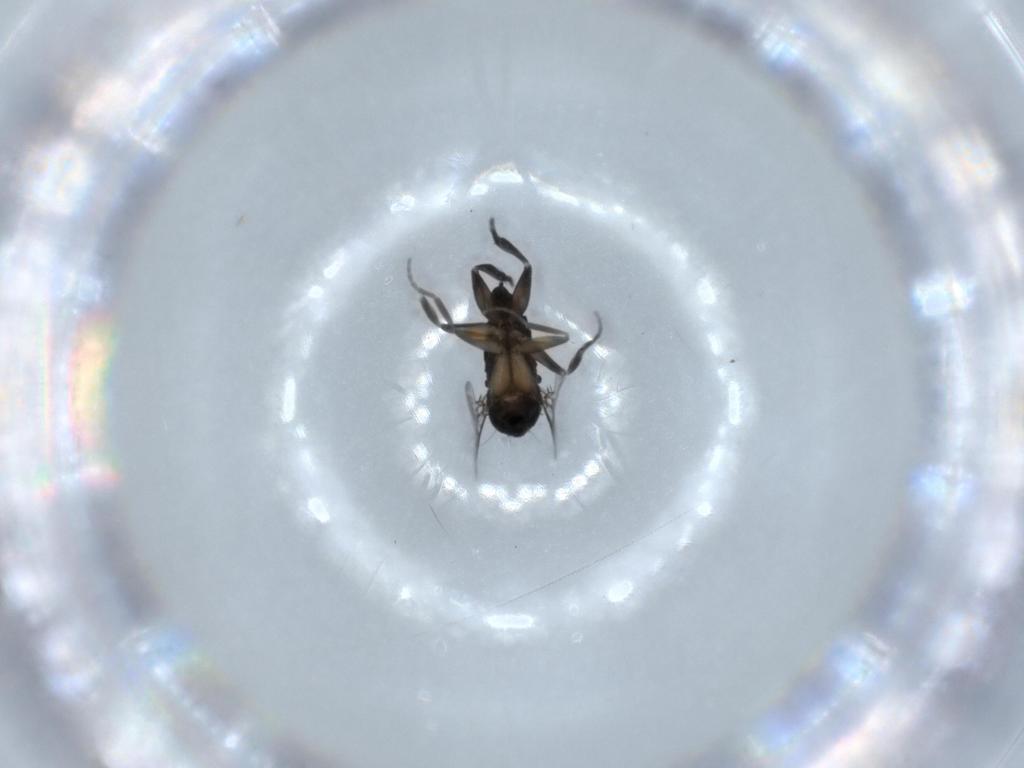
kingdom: Animalia
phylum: Arthropoda
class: Insecta
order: Diptera
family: Phoridae
